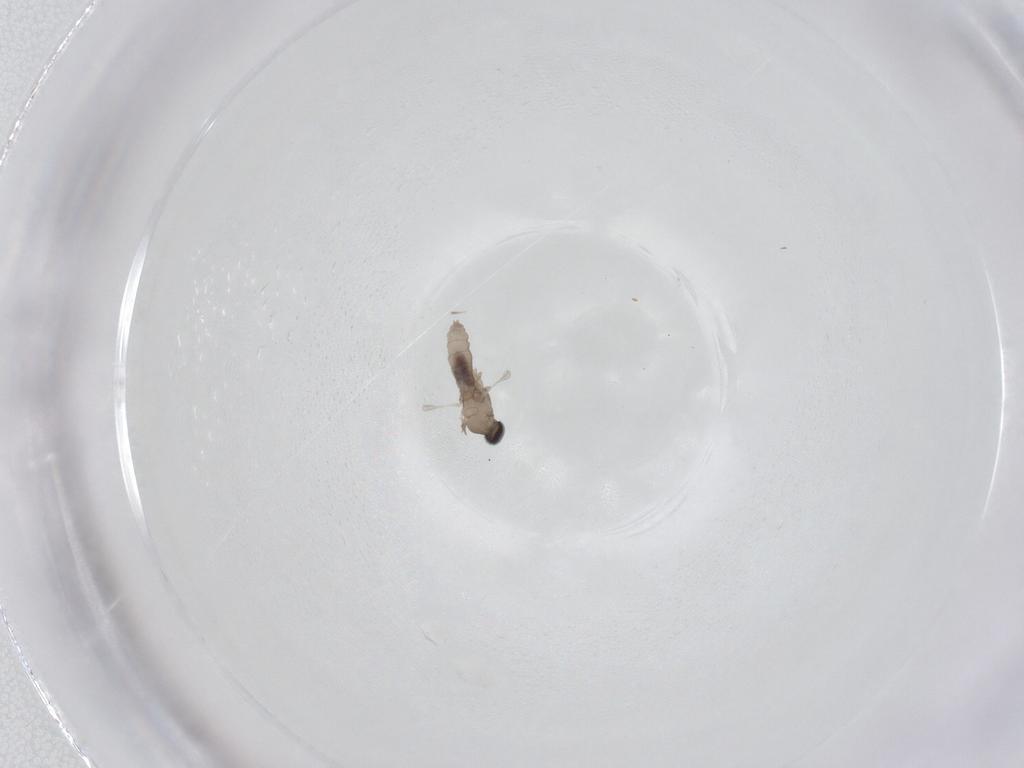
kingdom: Animalia
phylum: Arthropoda
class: Insecta
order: Diptera
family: Cecidomyiidae
